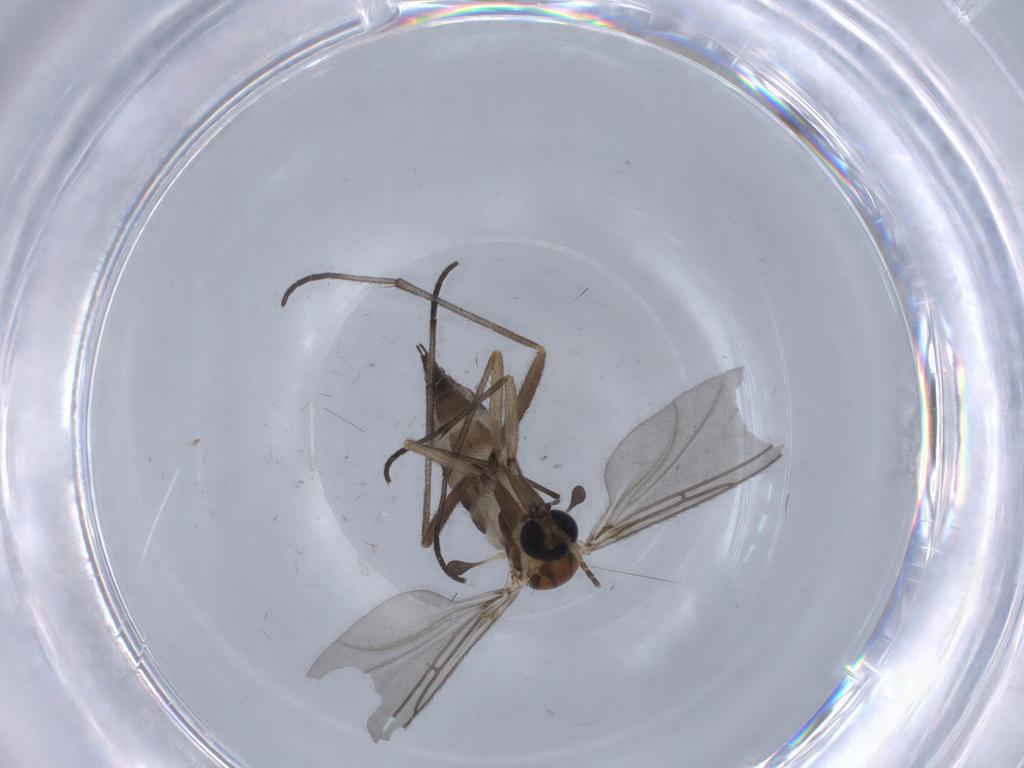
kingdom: Animalia
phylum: Arthropoda
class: Insecta
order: Diptera
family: Sciaridae
